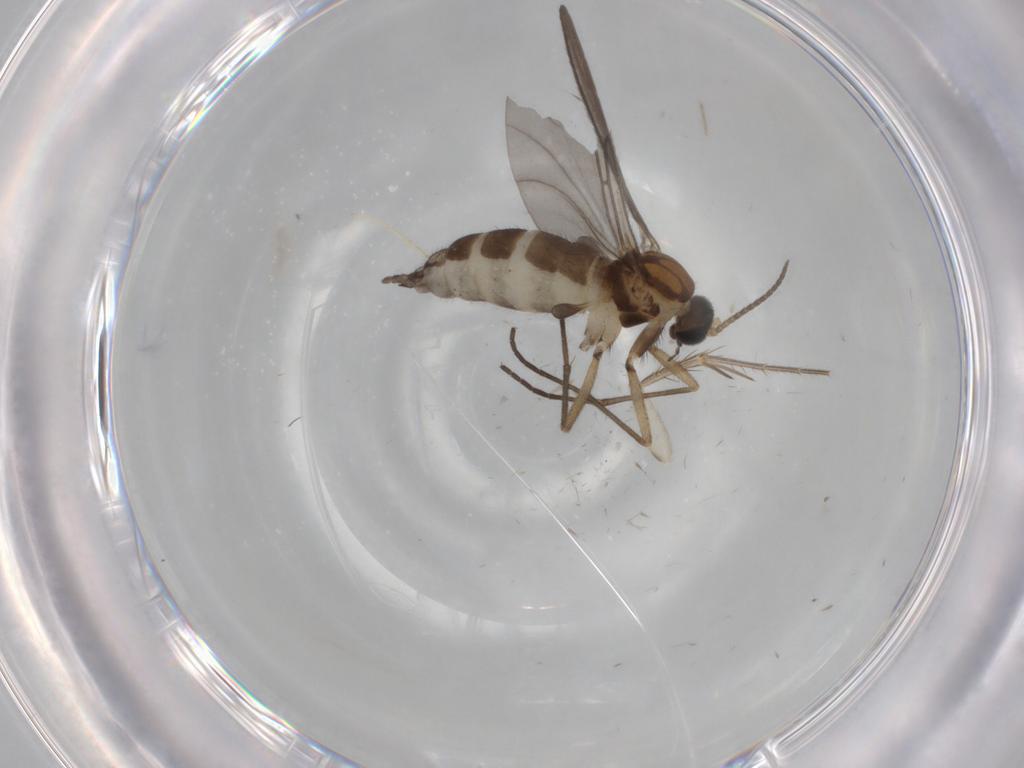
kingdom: Animalia
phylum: Arthropoda
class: Insecta
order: Diptera
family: Sciaridae
